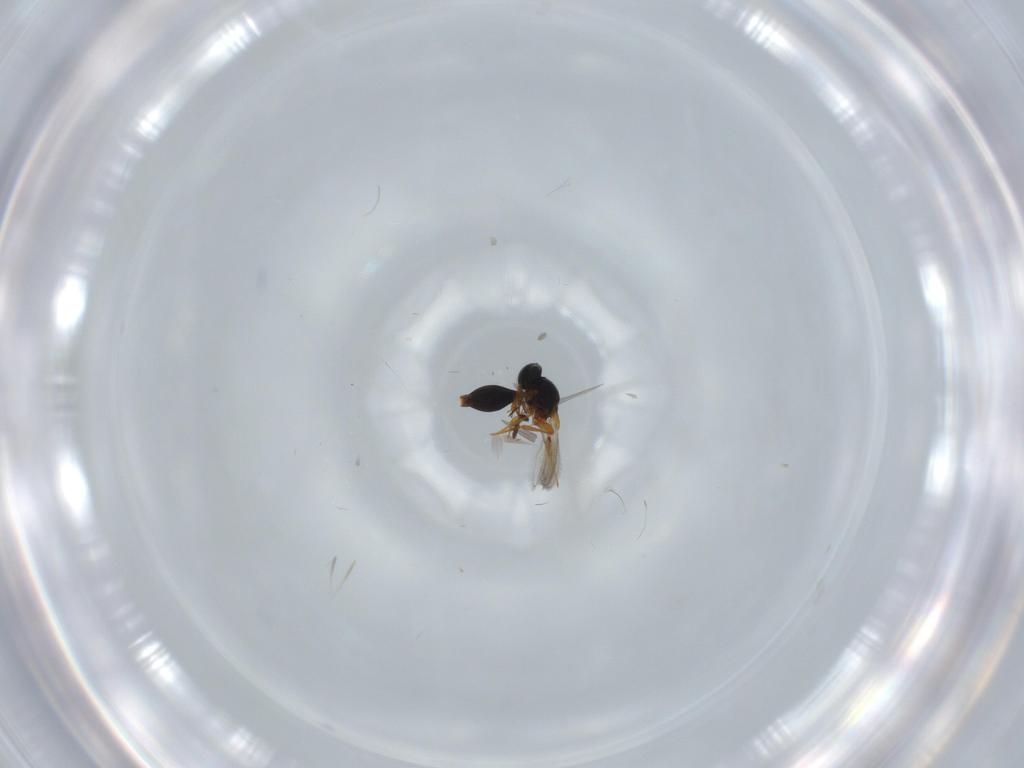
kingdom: Animalia
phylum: Arthropoda
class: Insecta
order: Hymenoptera
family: Platygastridae
